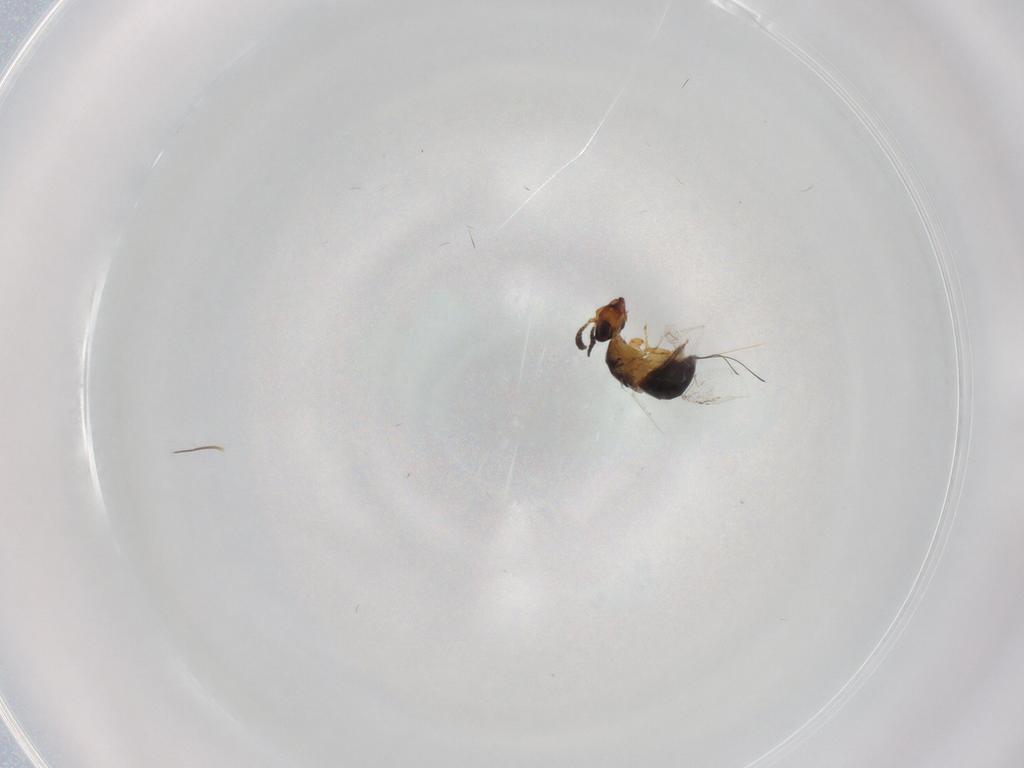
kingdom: Animalia
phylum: Arthropoda
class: Insecta
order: Hymenoptera
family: Agaonidae
